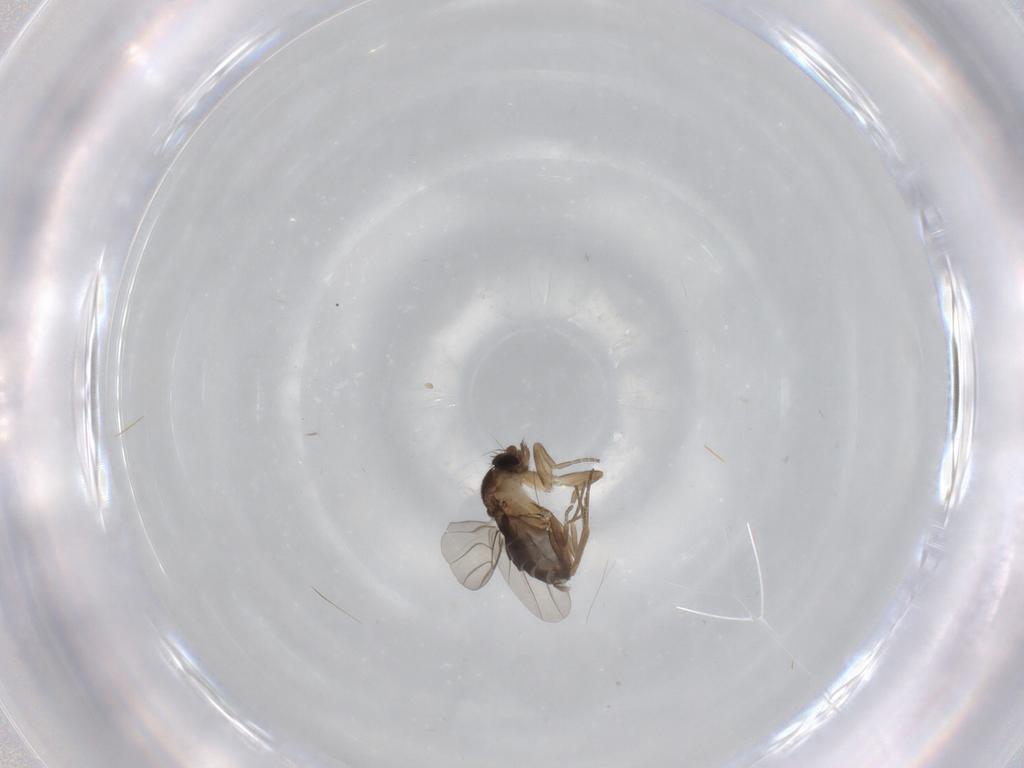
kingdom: Animalia
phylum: Arthropoda
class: Insecta
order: Diptera
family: Phoridae
